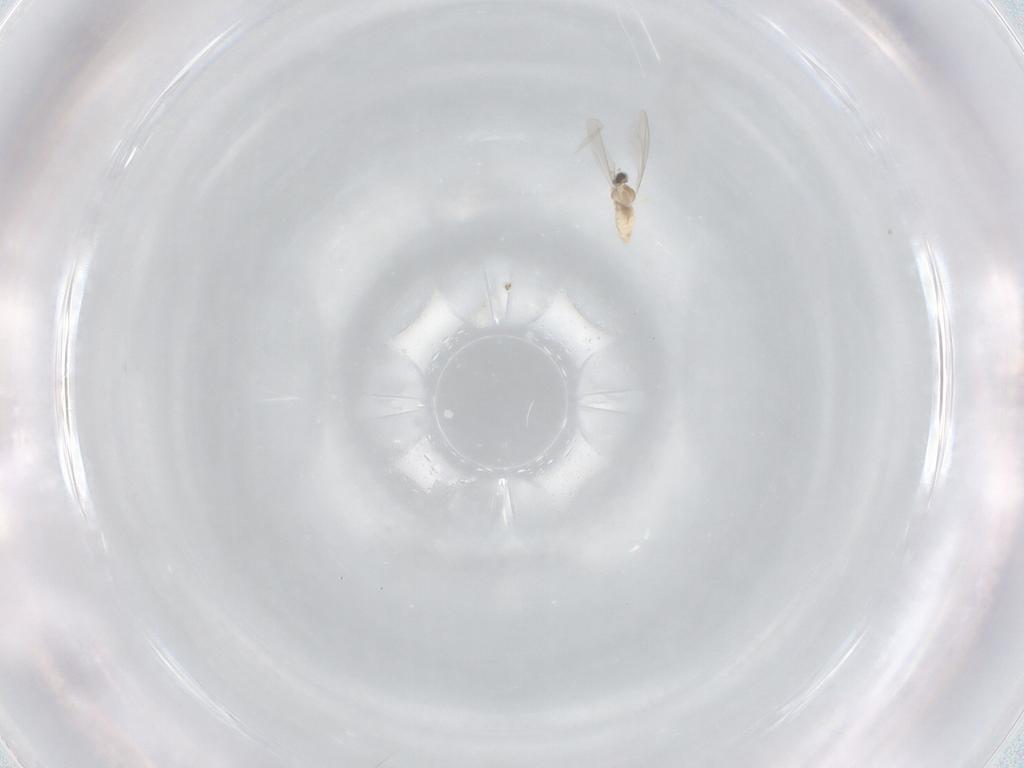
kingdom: Animalia
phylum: Arthropoda
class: Insecta
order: Diptera
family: Cecidomyiidae
